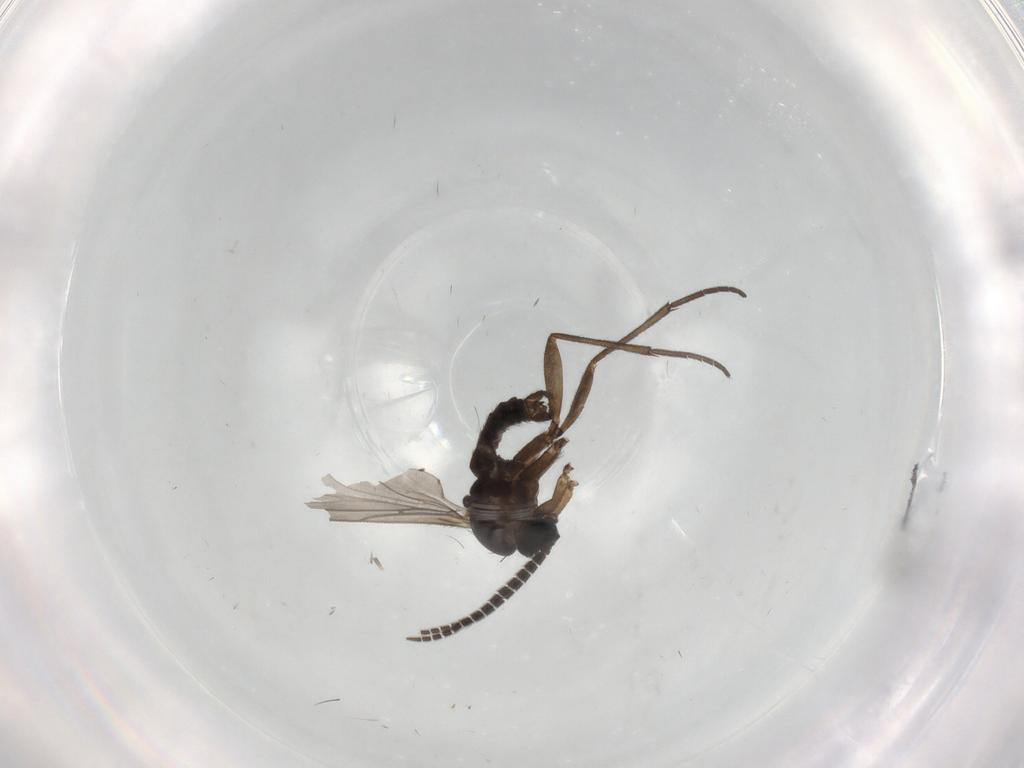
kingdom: Animalia
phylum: Arthropoda
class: Insecta
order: Diptera
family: Cecidomyiidae
